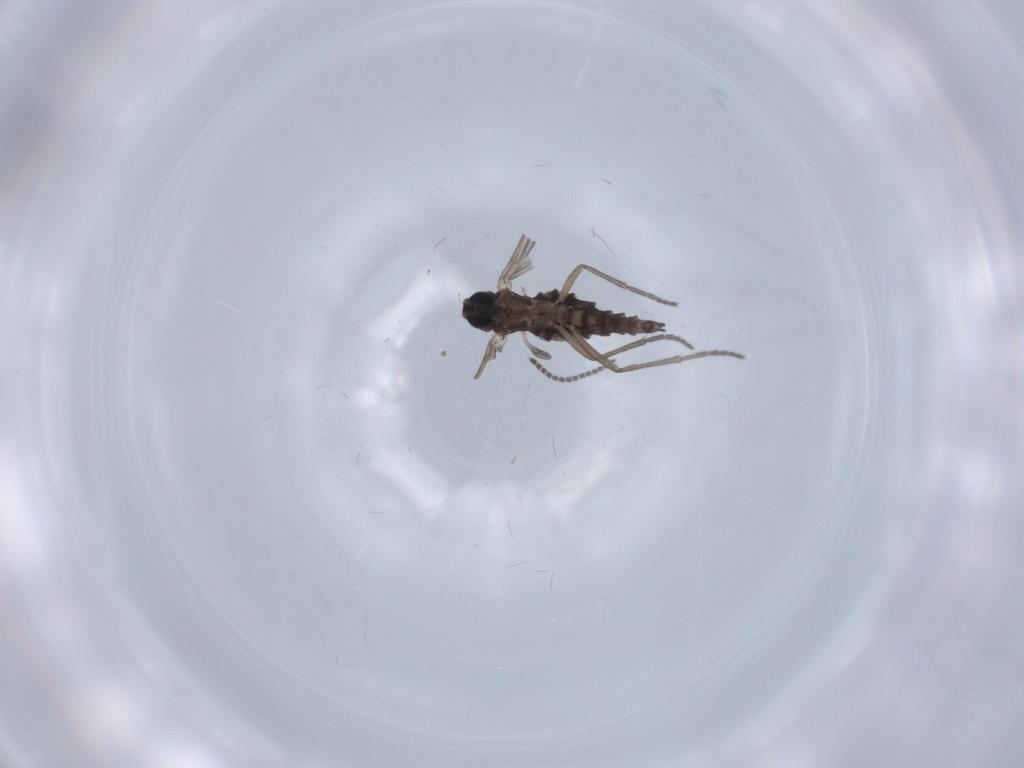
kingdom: Animalia
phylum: Arthropoda
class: Insecta
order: Diptera
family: Sciaridae
